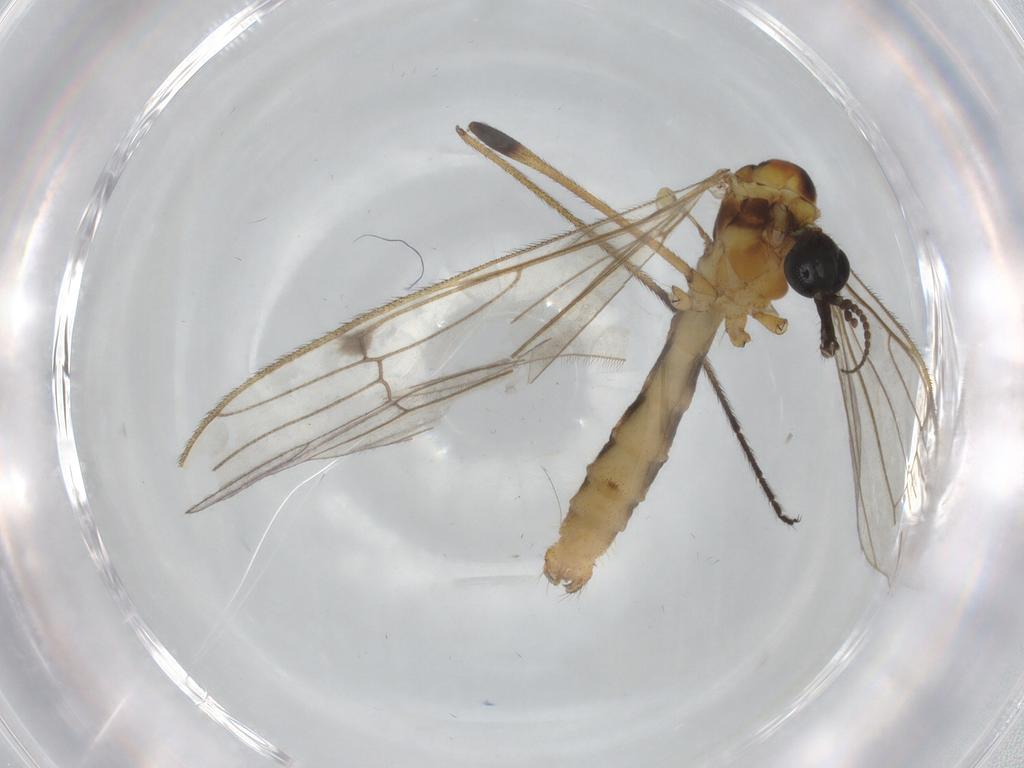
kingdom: Animalia
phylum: Arthropoda
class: Insecta
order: Diptera
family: Limoniidae
